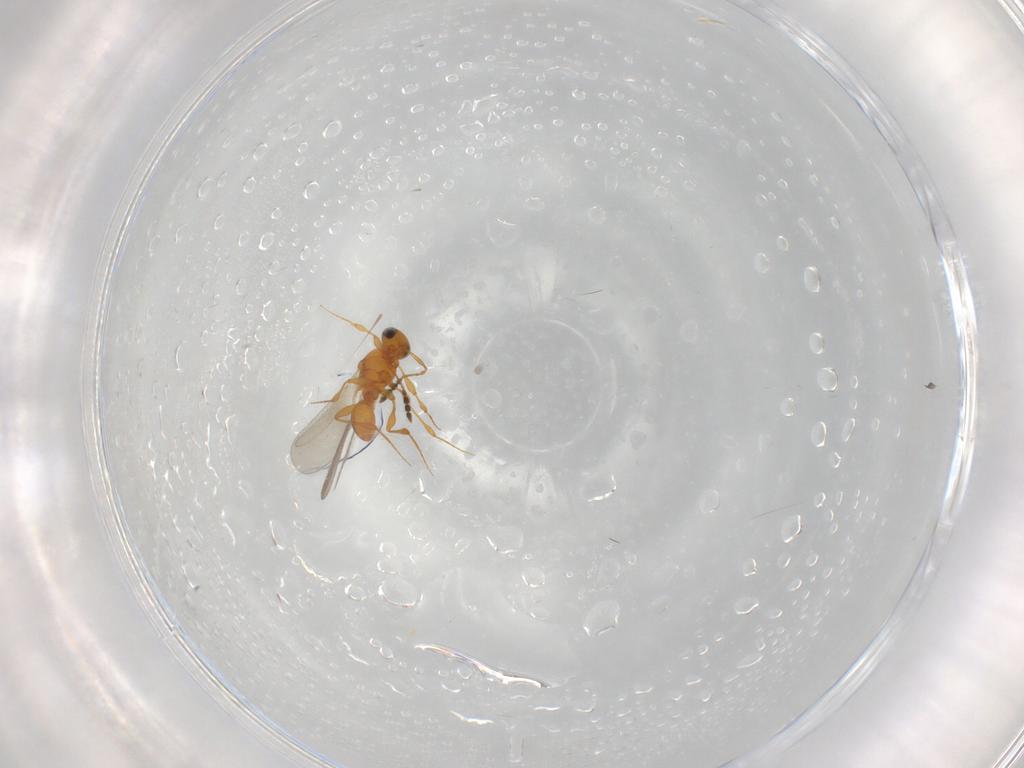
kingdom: Animalia
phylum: Arthropoda
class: Insecta
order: Hymenoptera
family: Platygastridae
